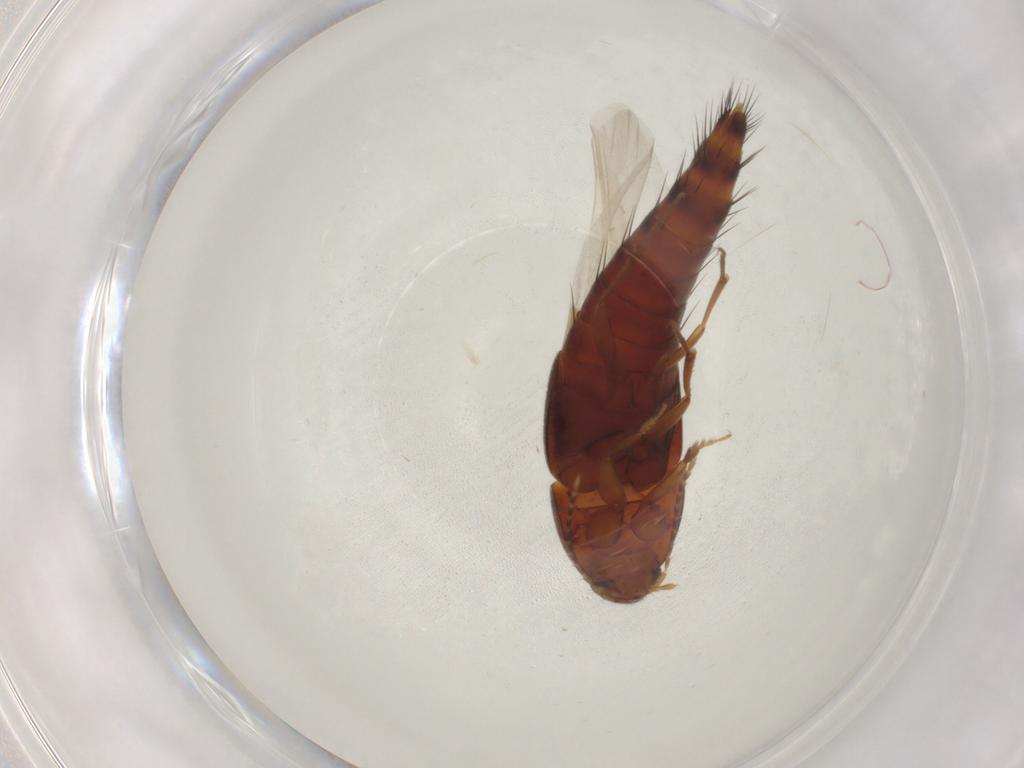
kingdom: Animalia
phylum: Arthropoda
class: Insecta
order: Coleoptera
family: Staphylinidae
